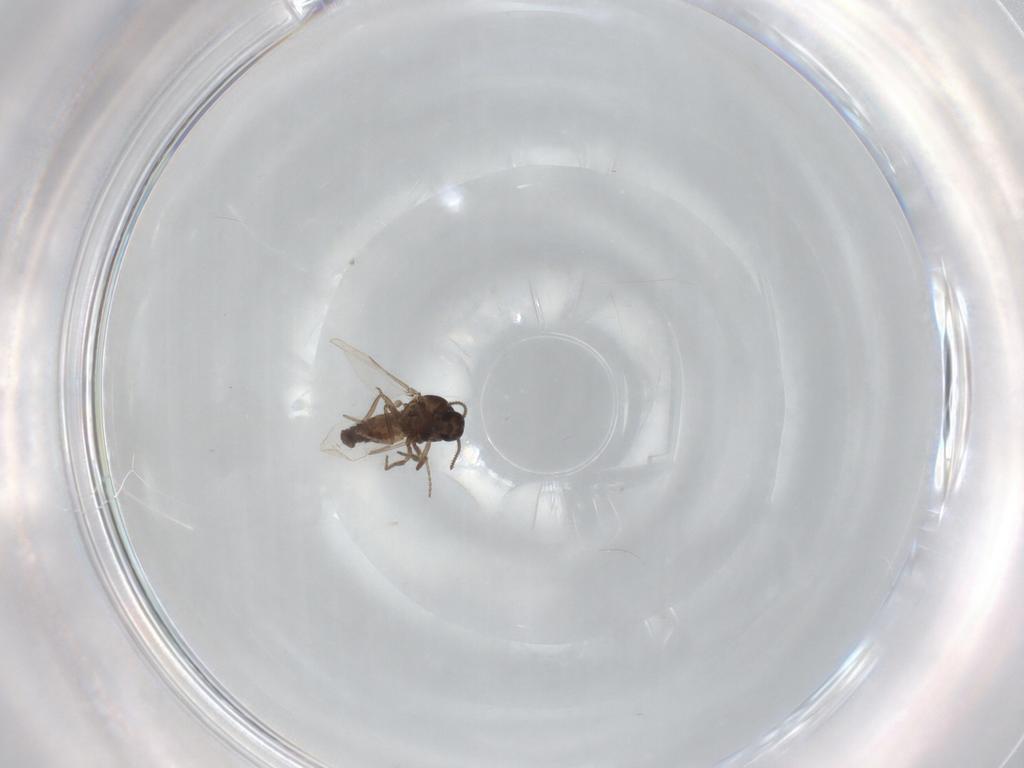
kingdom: Animalia
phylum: Arthropoda
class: Insecta
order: Diptera
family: Ceratopogonidae
